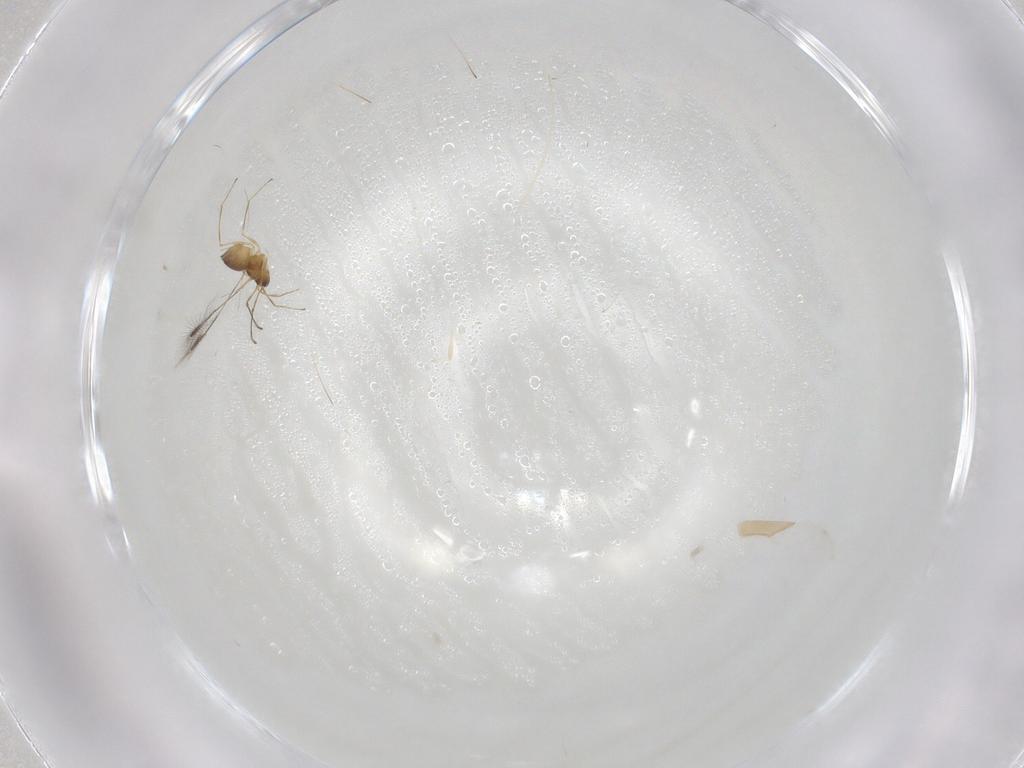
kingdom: Animalia
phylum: Arthropoda
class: Insecta
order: Hymenoptera
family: Mymaridae
